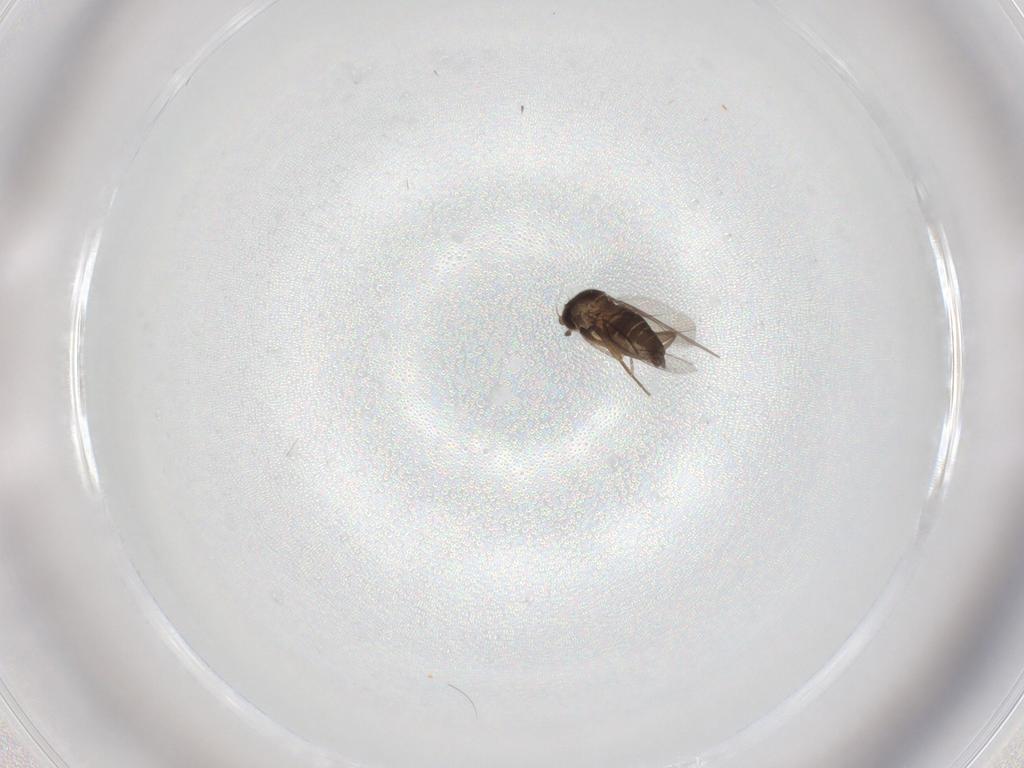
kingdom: Animalia
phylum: Arthropoda
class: Insecta
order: Diptera
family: Phoridae
